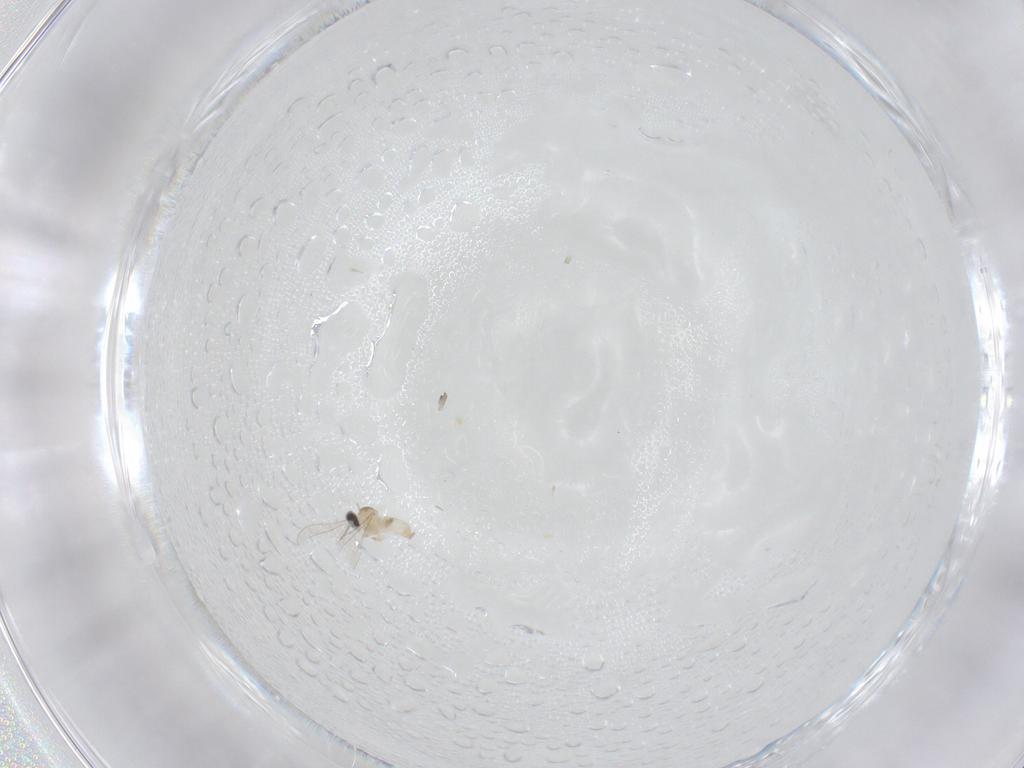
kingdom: Animalia
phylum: Arthropoda
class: Insecta
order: Diptera
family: Cecidomyiidae
